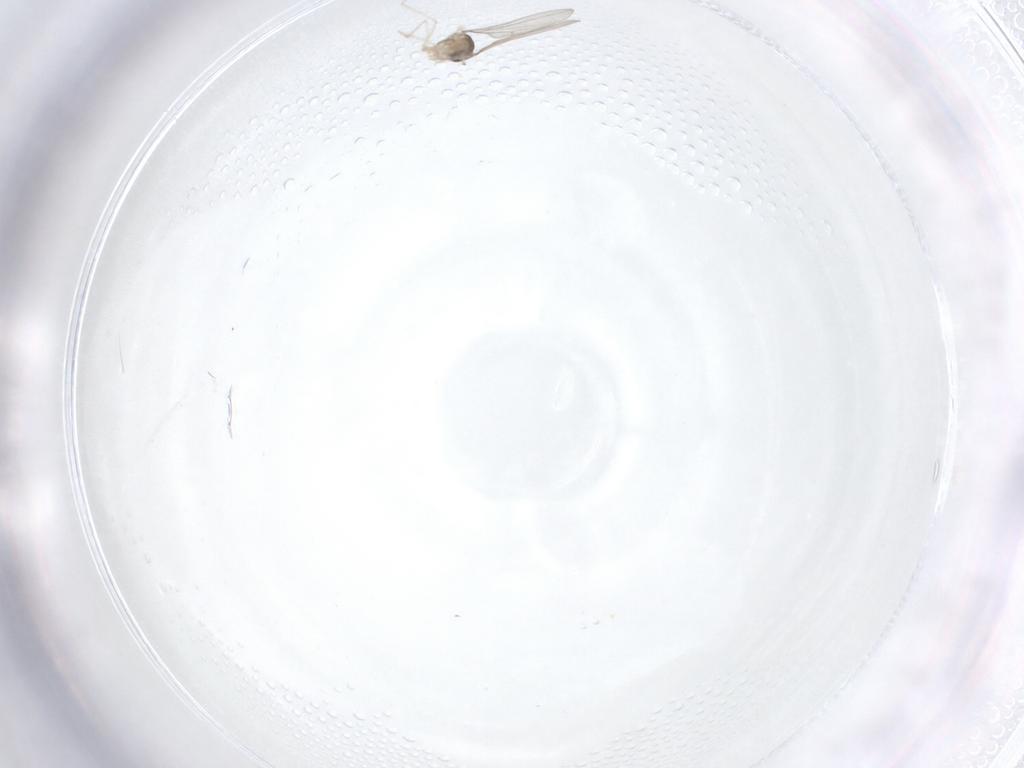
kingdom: Animalia
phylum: Arthropoda
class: Insecta
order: Diptera
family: Cecidomyiidae
